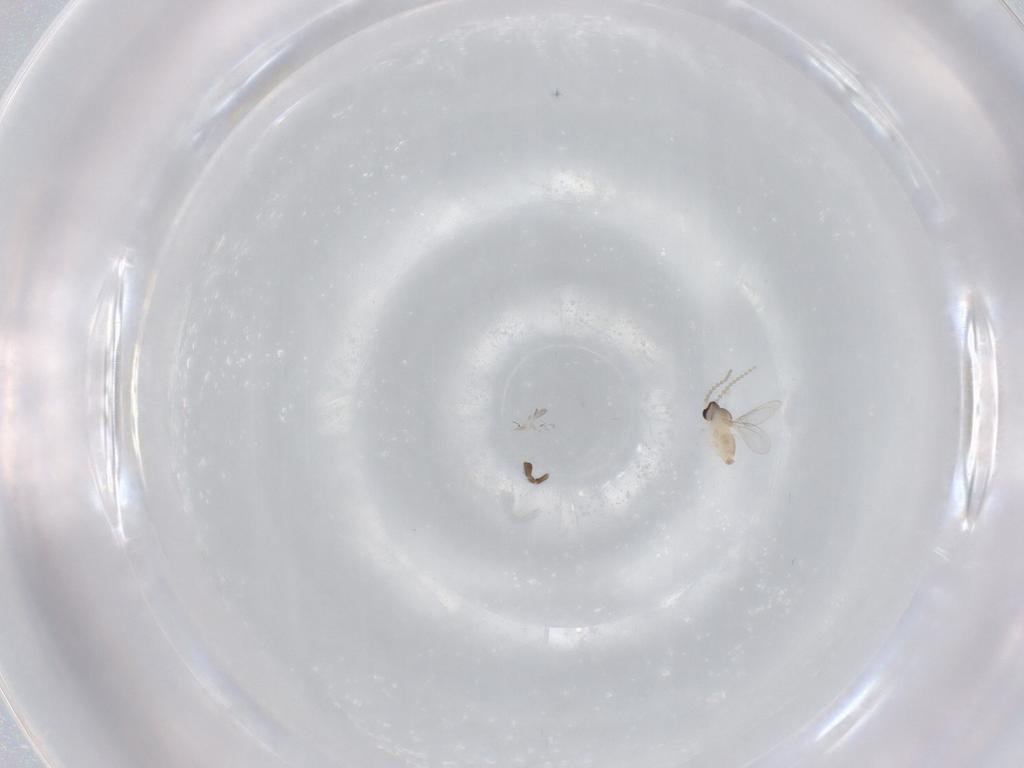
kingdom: Animalia
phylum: Arthropoda
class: Insecta
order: Diptera
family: Cecidomyiidae
